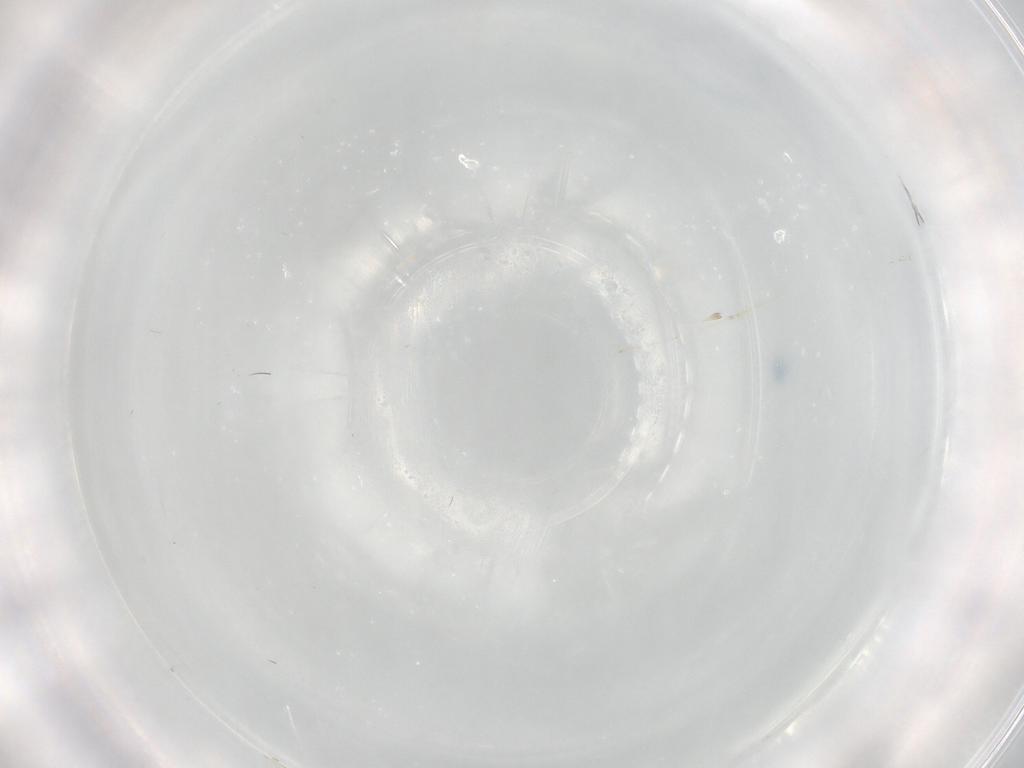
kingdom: Animalia
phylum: Arthropoda
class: Insecta
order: Diptera
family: Cecidomyiidae
